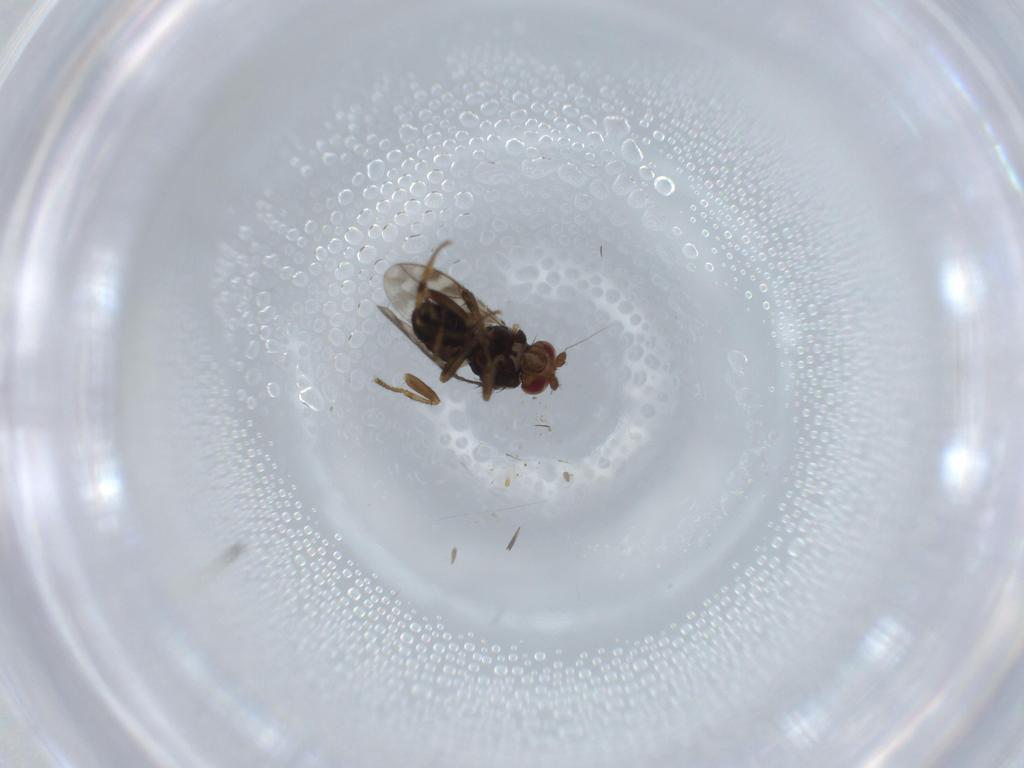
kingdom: Animalia
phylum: Arthropoda
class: Insecta
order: Diptera
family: Sphaeroceridae
